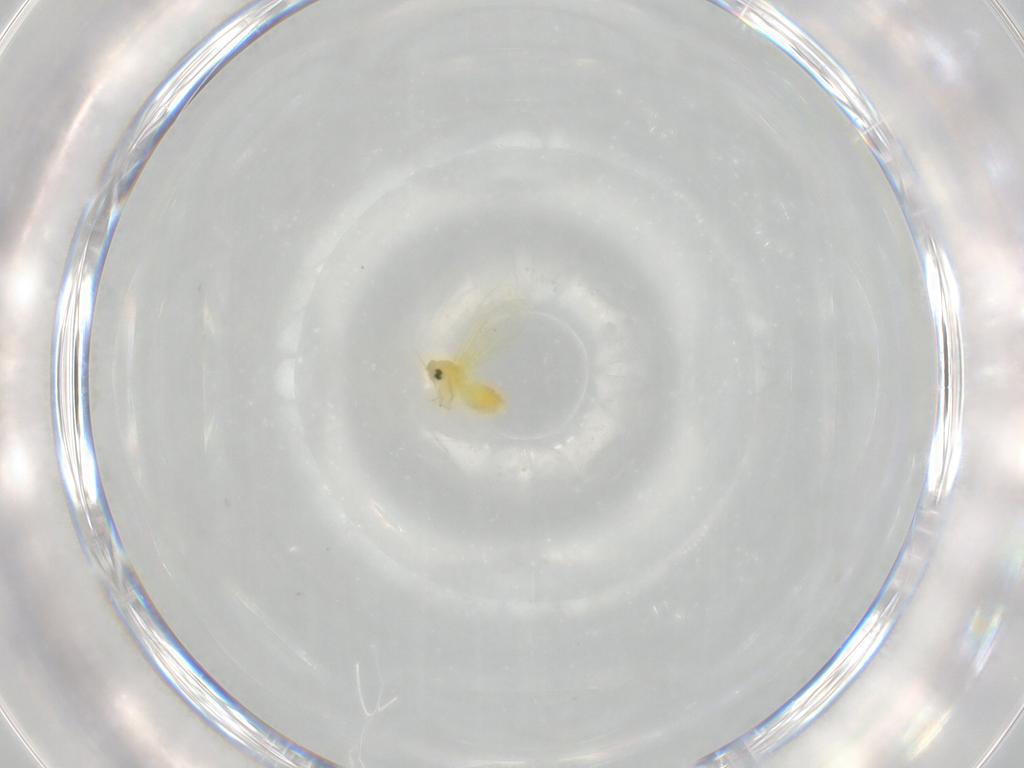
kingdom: Animalia
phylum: Arthropoda
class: Insecta
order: Hemiptera
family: Aleyrodidae
